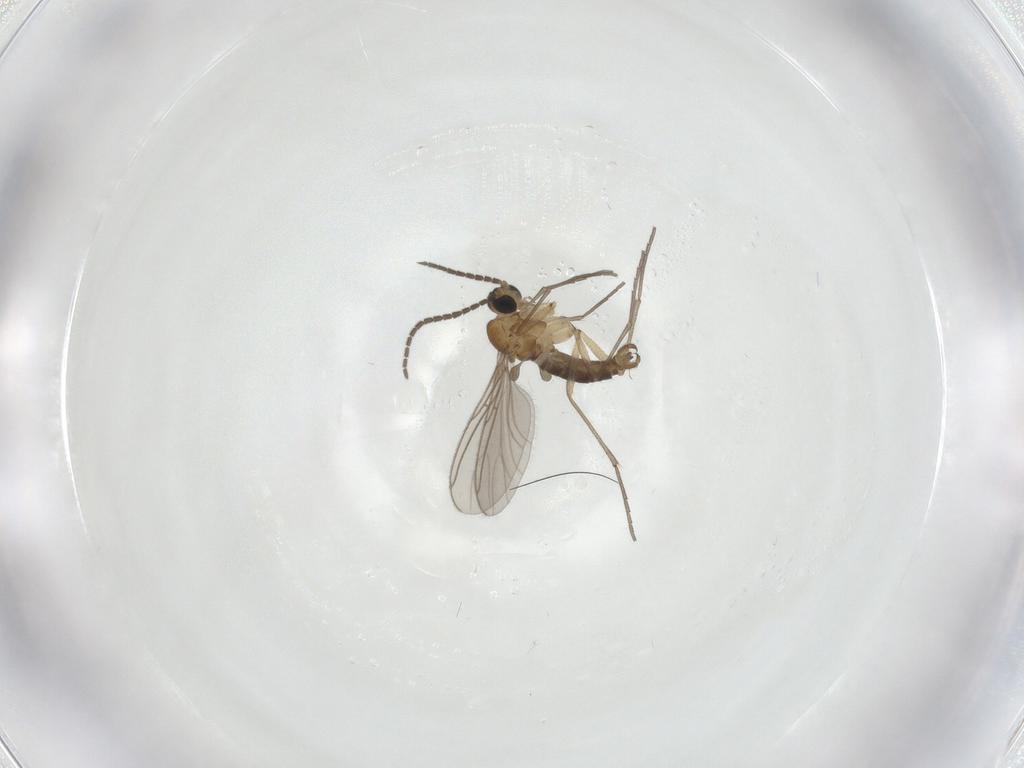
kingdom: Animalia
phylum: Arthropoda
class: Insecta
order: Diptera
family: Sciaridae
